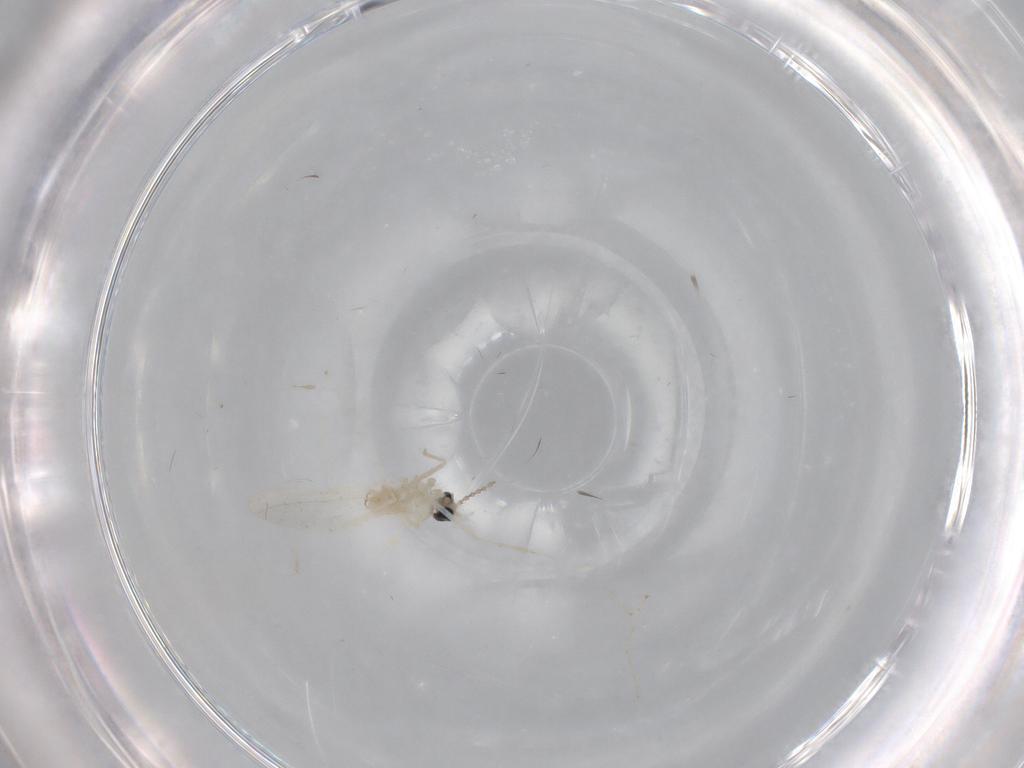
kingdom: Animalia
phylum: Arthropoda
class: Insecta
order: Diptera
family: Cecidomyiidae
